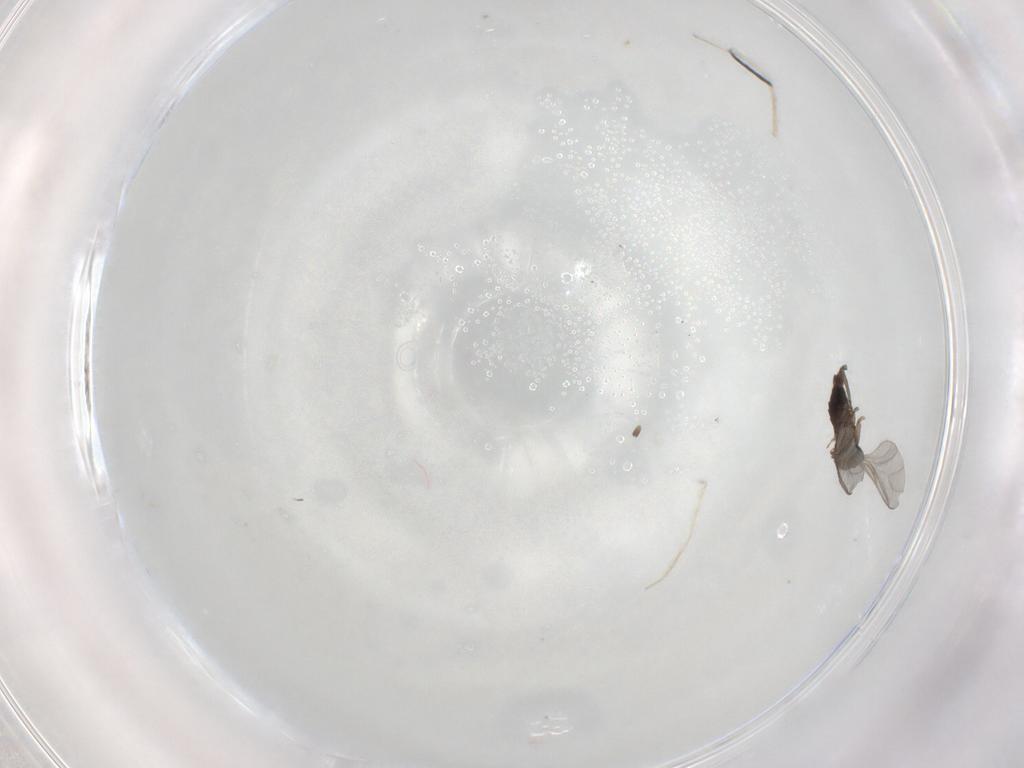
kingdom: Animalia
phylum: Arthropoda
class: Insecta
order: Diptera
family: Sciaridae
